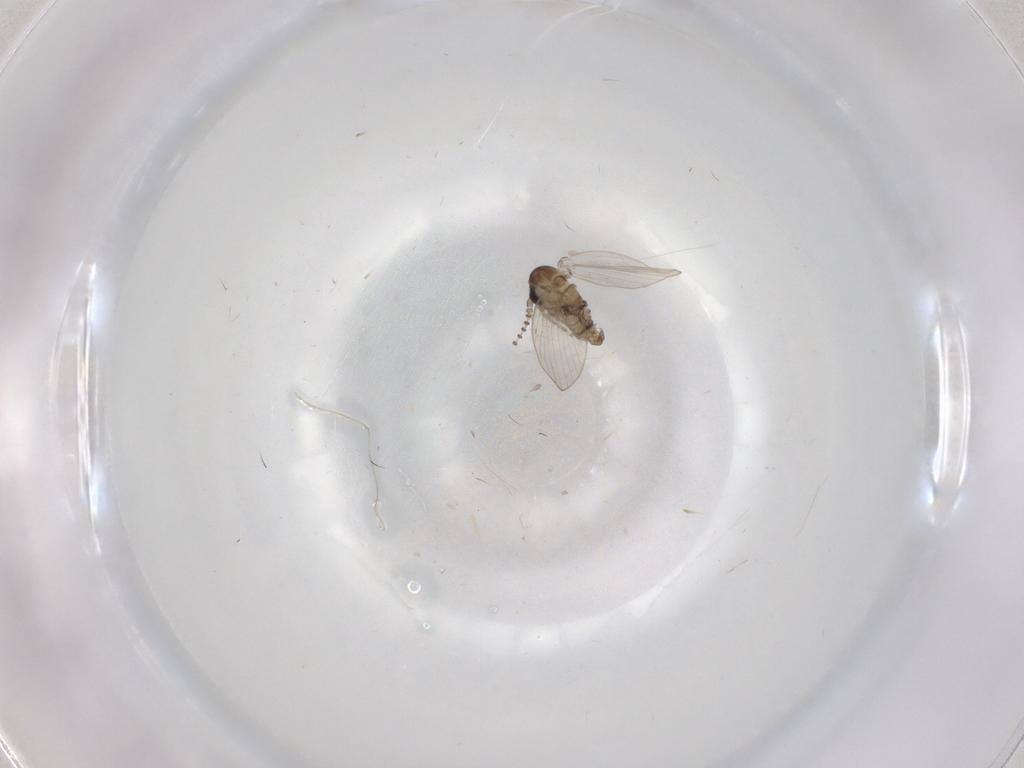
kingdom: Animalia
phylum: Arthropoda
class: Insecta
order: Diptera
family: Psychodidae
